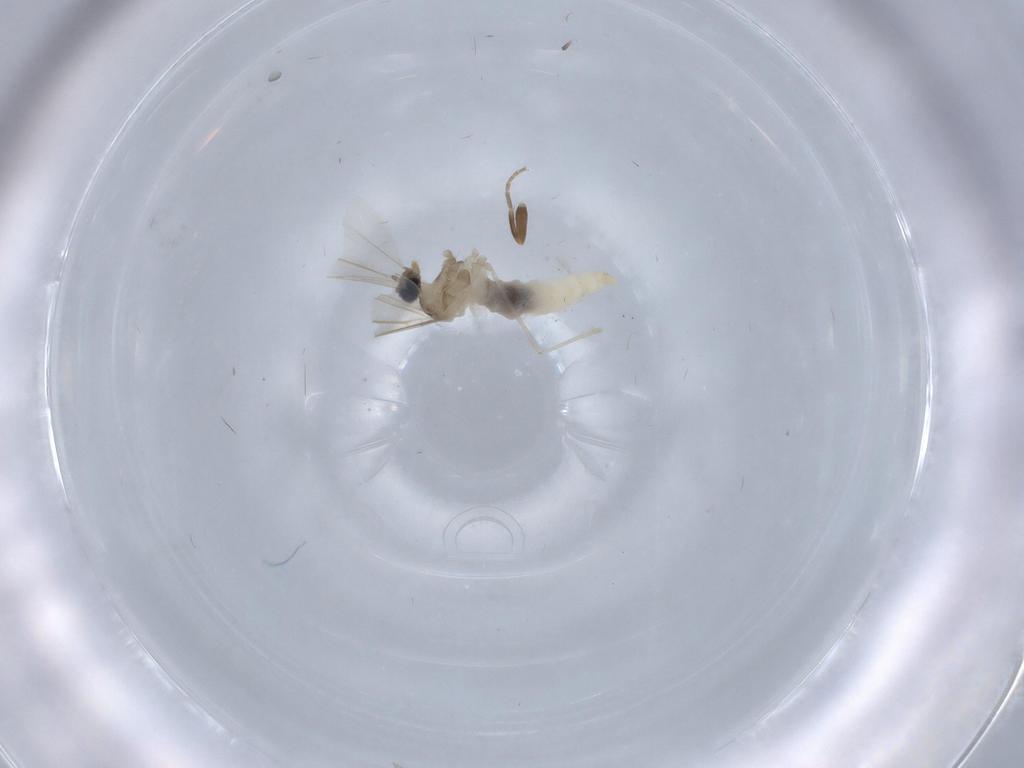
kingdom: Animalia
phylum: Arthropoda
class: Insecta
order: Diptera
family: Cecidomyiidae
